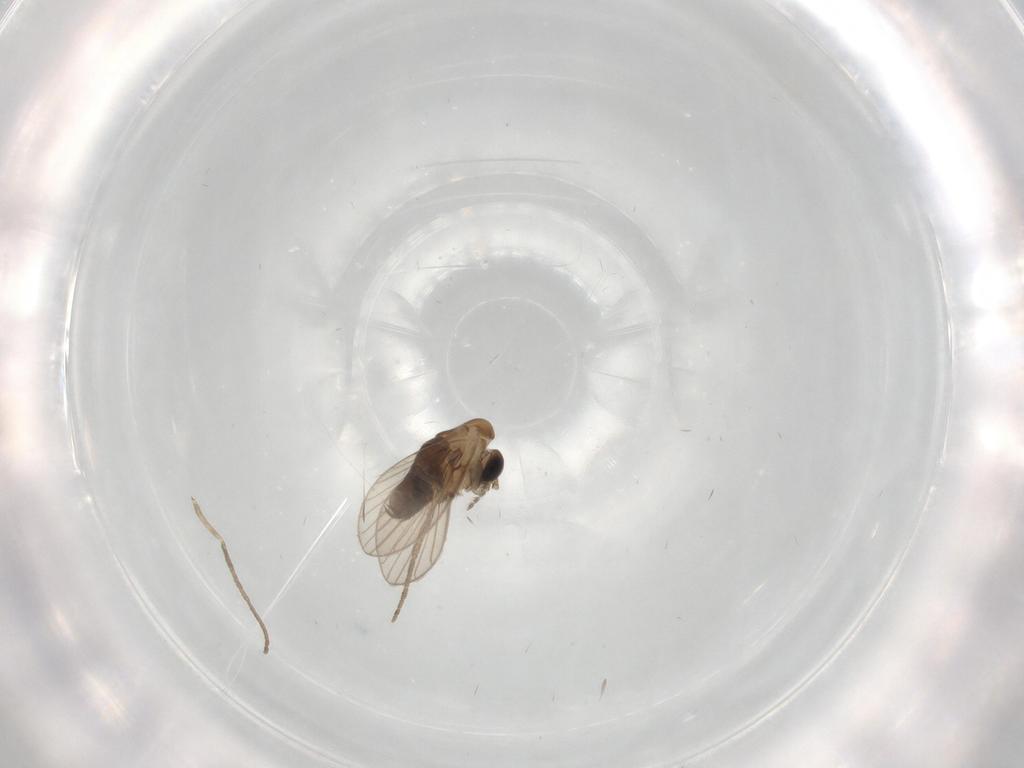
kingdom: Animalia
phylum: Arthropoda
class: Insecta
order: Diptera
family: Psychodidae
